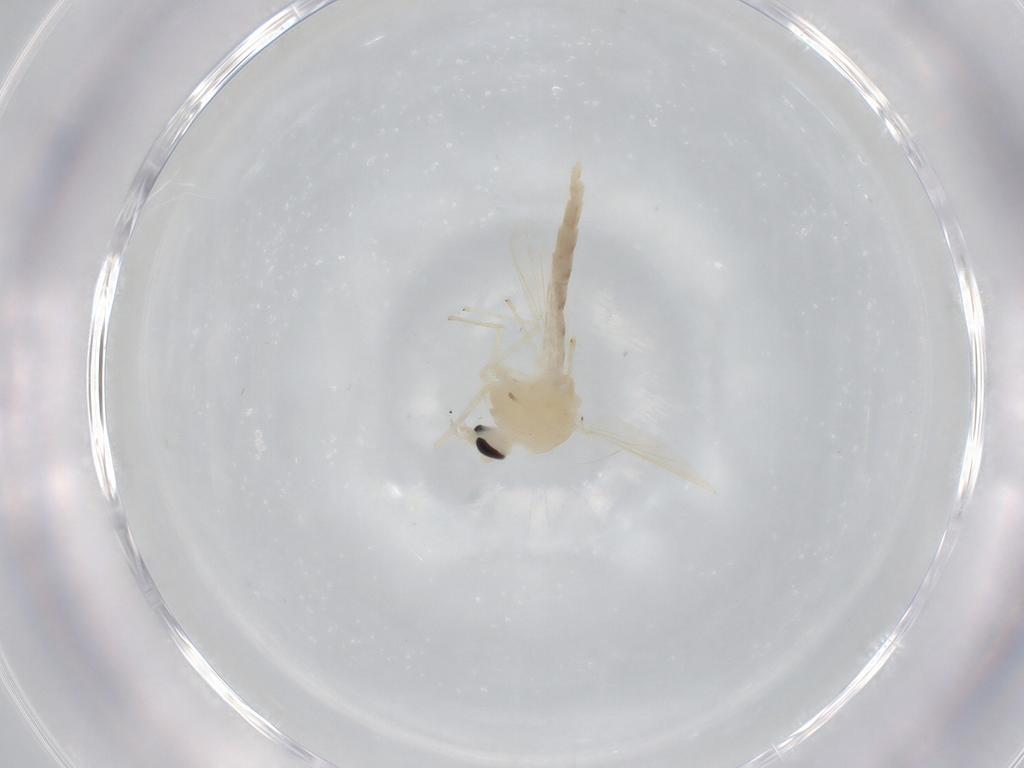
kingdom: Animalia
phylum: Arthropoda
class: Insecta
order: Diptera
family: Chironomidae
